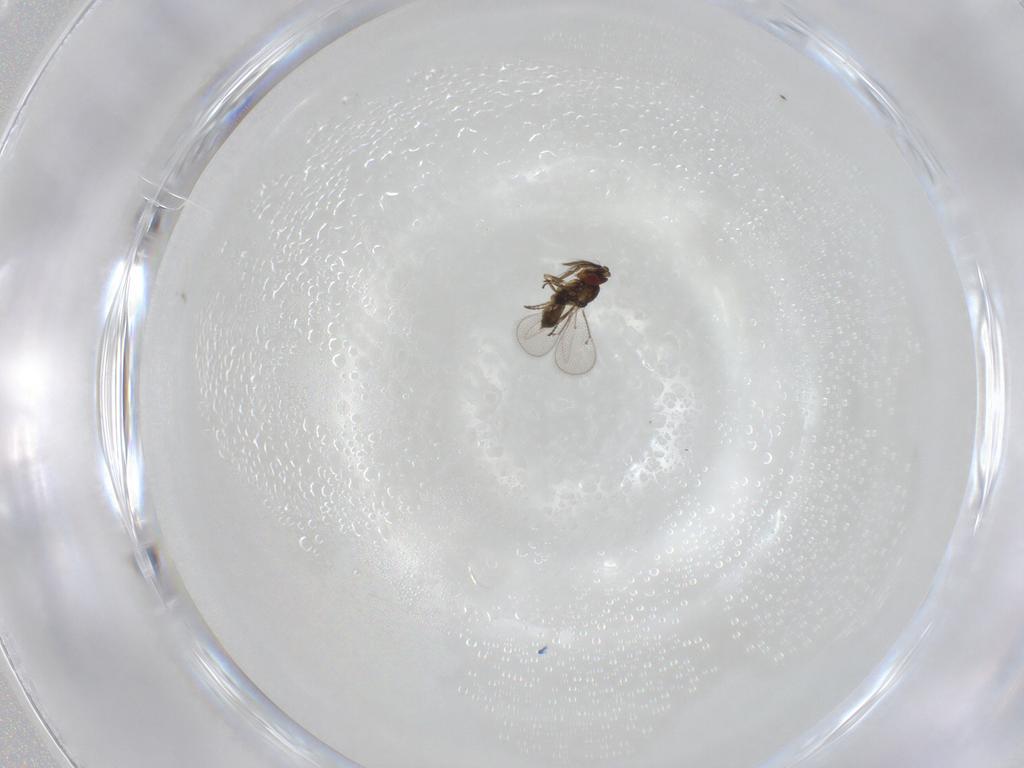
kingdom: Animalia
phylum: Arthropoda
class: Insecta
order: Hymenoptera
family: Eulophidae
